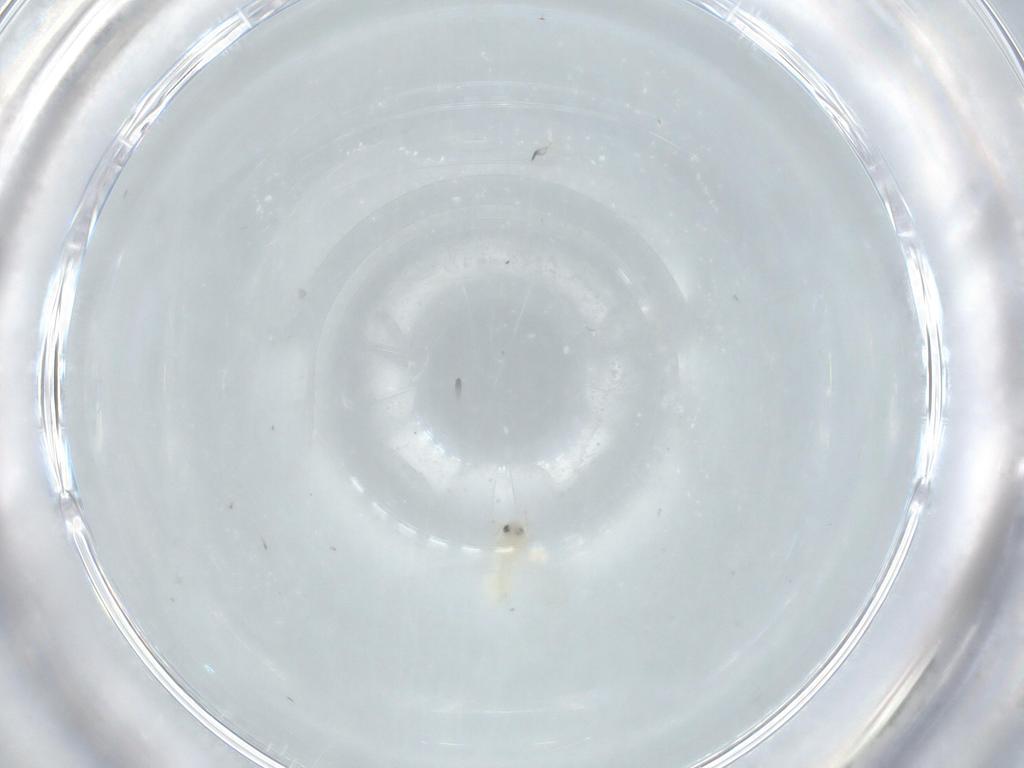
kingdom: Animalia
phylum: Arthropoda
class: Insecta
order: Hemiptera
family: Aleyrodidae
